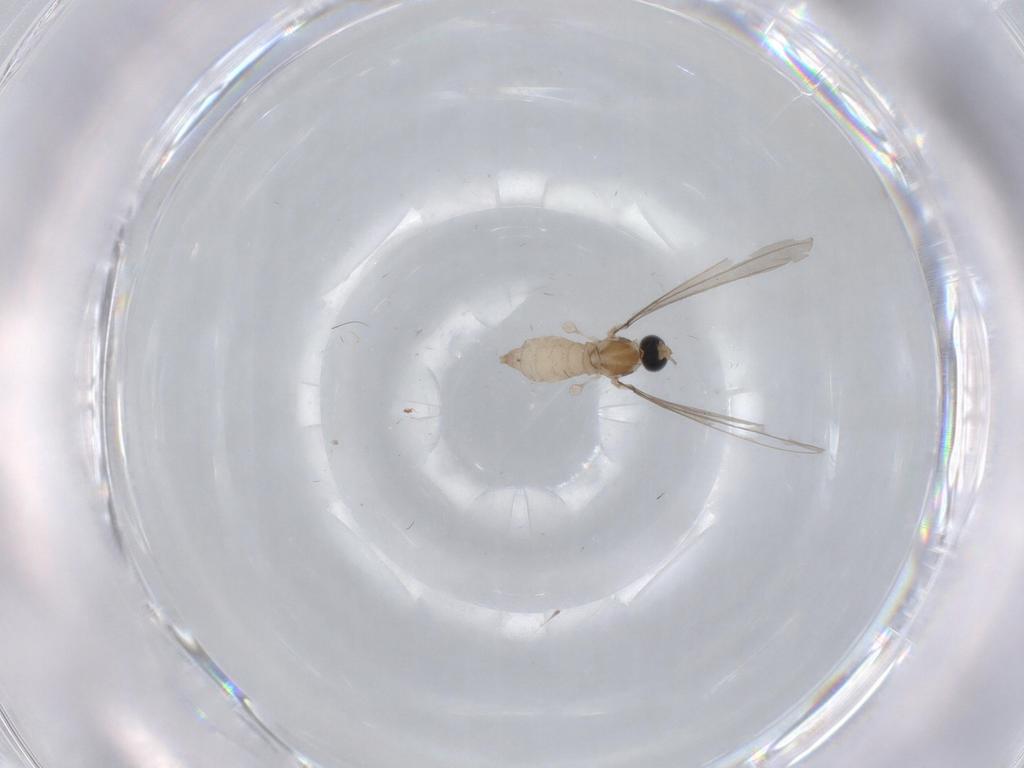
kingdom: Animalia
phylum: Arthropoda
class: Insecta
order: Diptera
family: Cecidomyiidae
